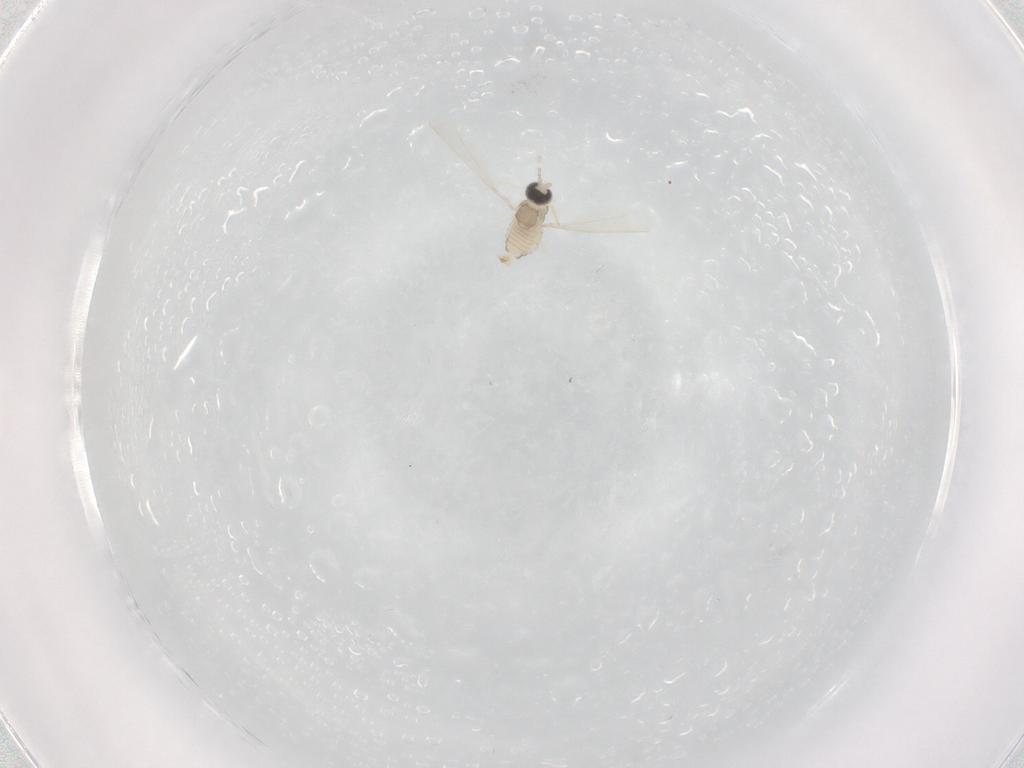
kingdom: Animalia
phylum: Arthropoda
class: Insecta
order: Diptera
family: Cecidomyiidae
